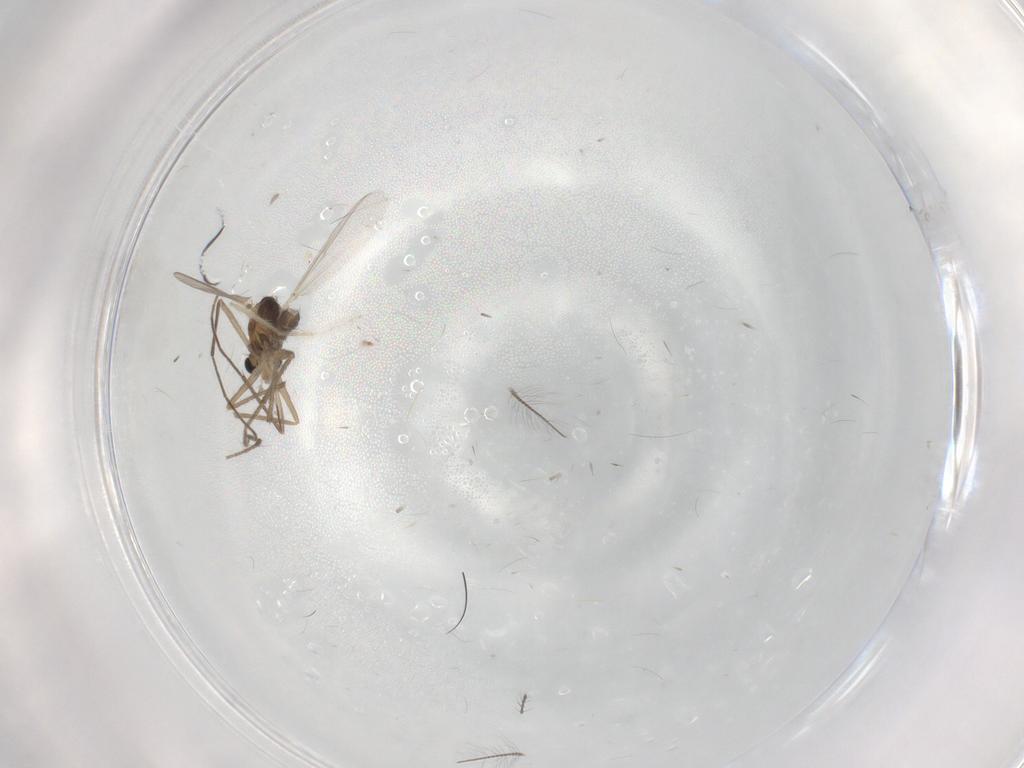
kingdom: Animalia
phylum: Arthropoda
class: Insecta
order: Diptera
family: Chironomidae
